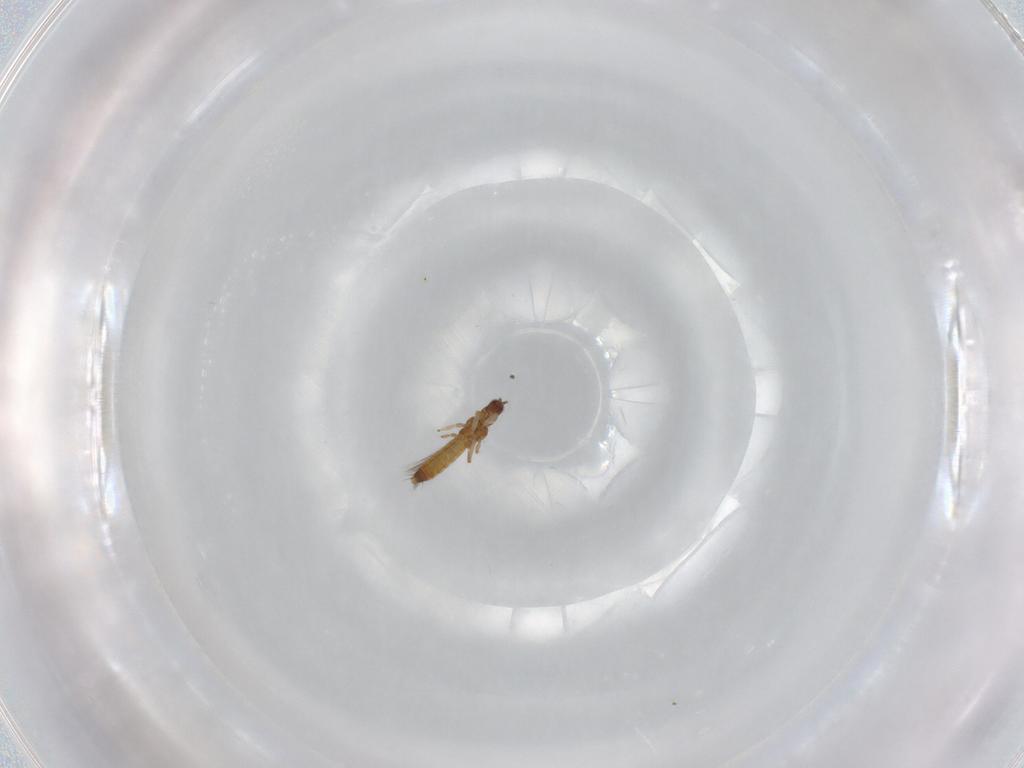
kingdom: Animalia
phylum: Arthropoda
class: Insecta
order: Thysanoptera
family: Thripidae
